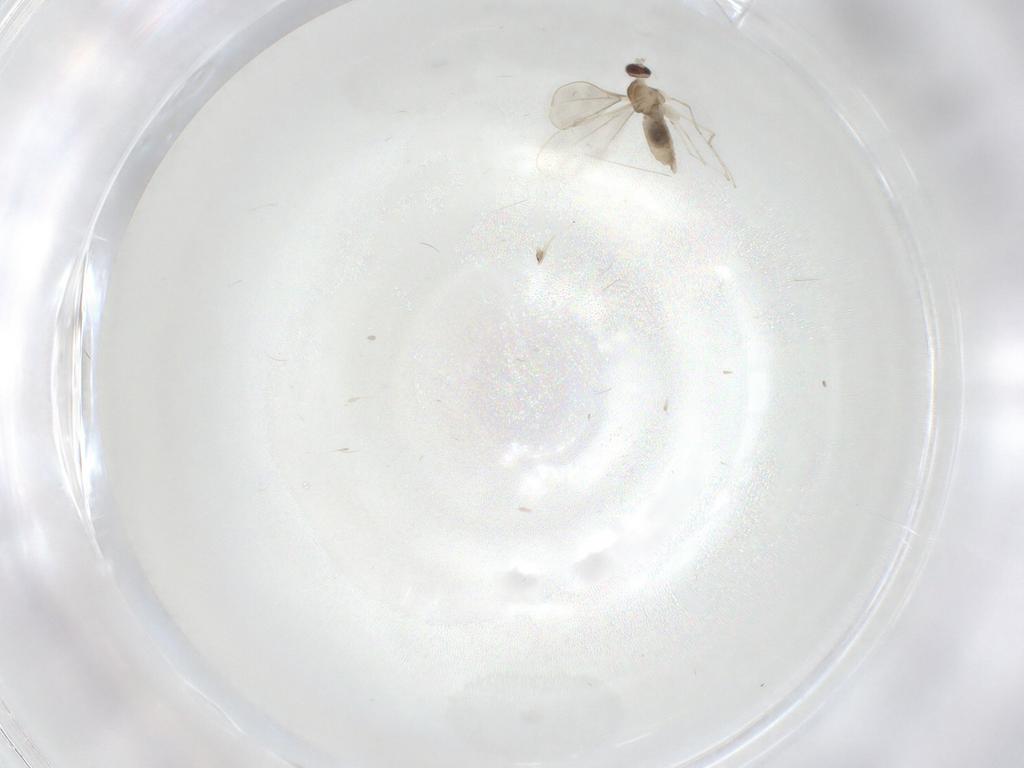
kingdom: Animalia
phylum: Arthropoda
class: Insecta
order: Diptera
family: Cecidomyiidae
